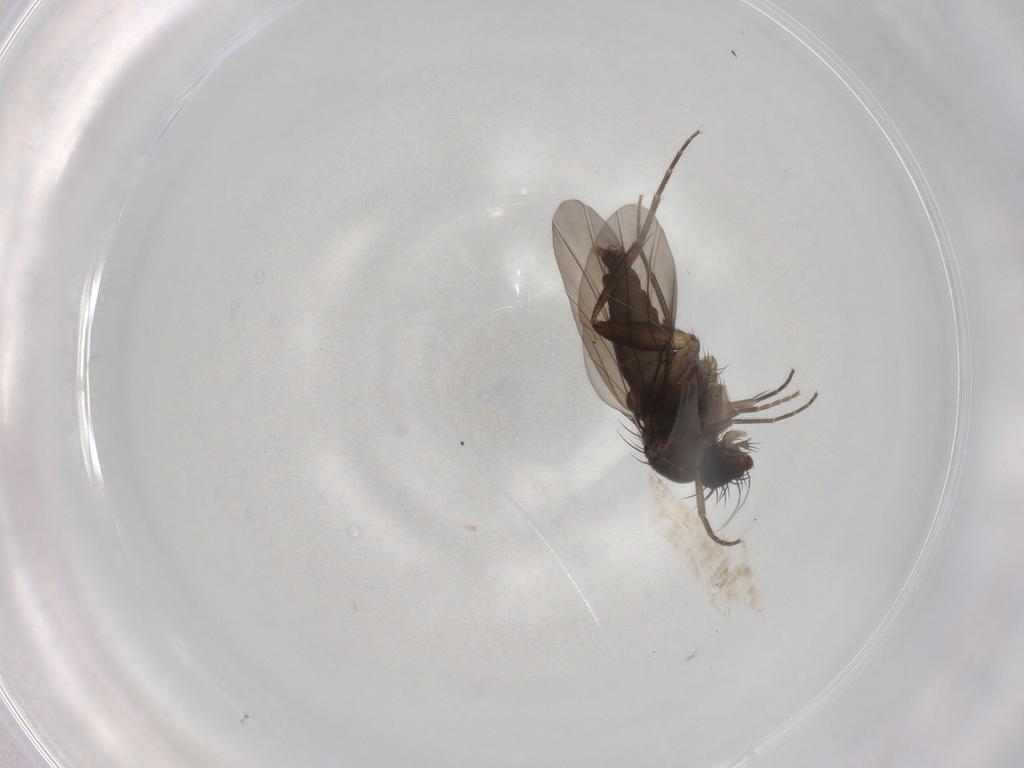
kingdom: Animalia
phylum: Arthropoda
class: Insecta
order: Diptera
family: Phoridae
